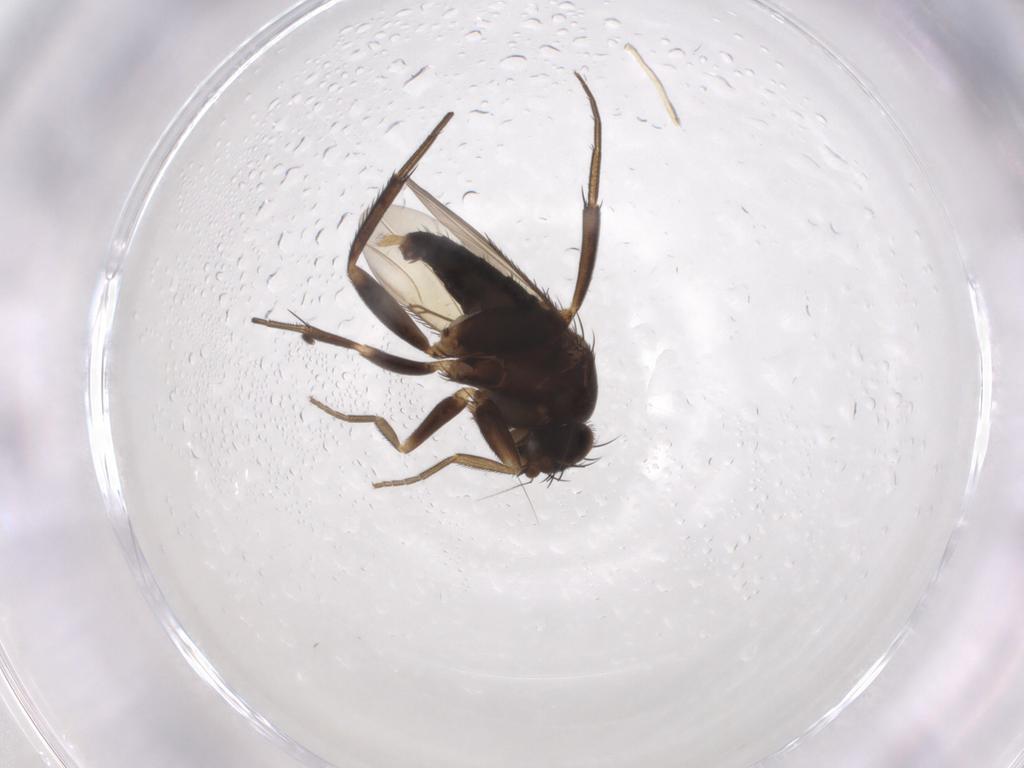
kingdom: Animalia
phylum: Arthropoda
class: Insecta
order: Diptera
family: Phoridae
